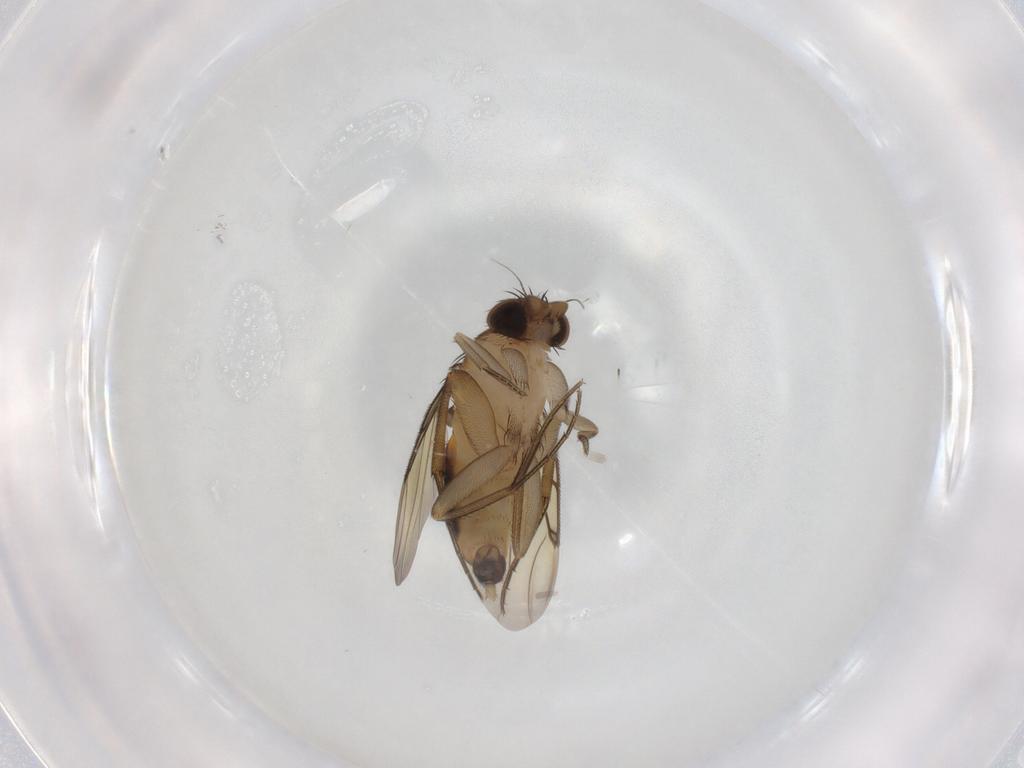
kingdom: Animalia
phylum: Arthropoda
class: Insecta
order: Diptera
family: Phoridae
